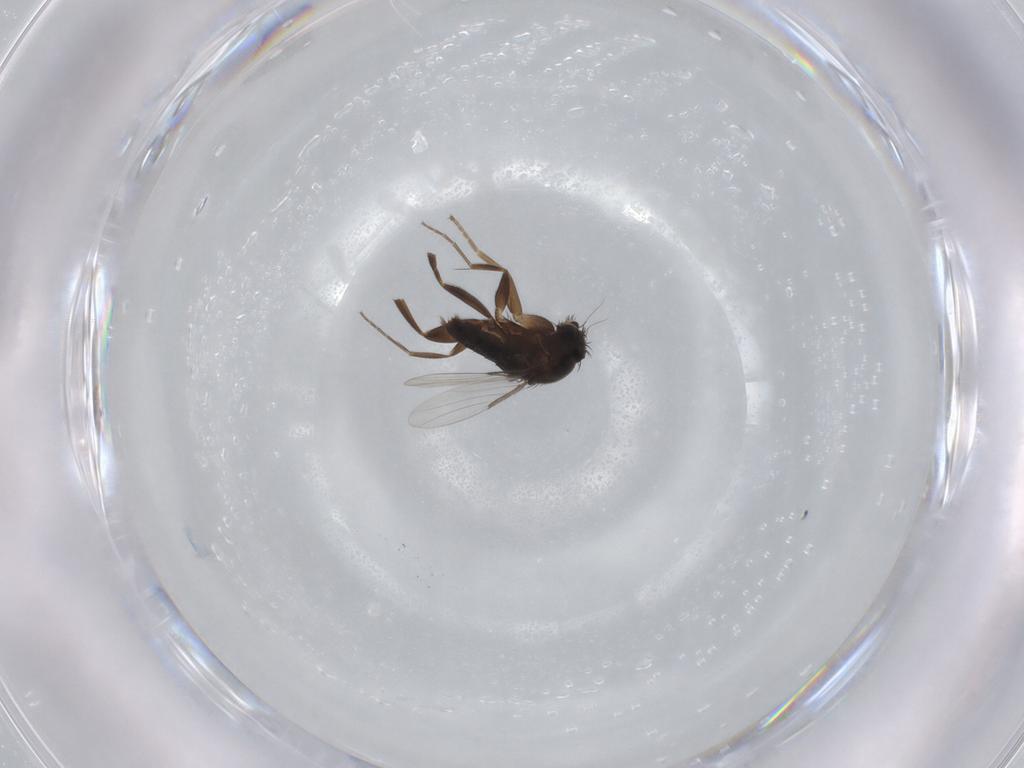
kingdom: Animalia
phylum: Arthropoda
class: Insecta
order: Diptera
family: Phoridae
